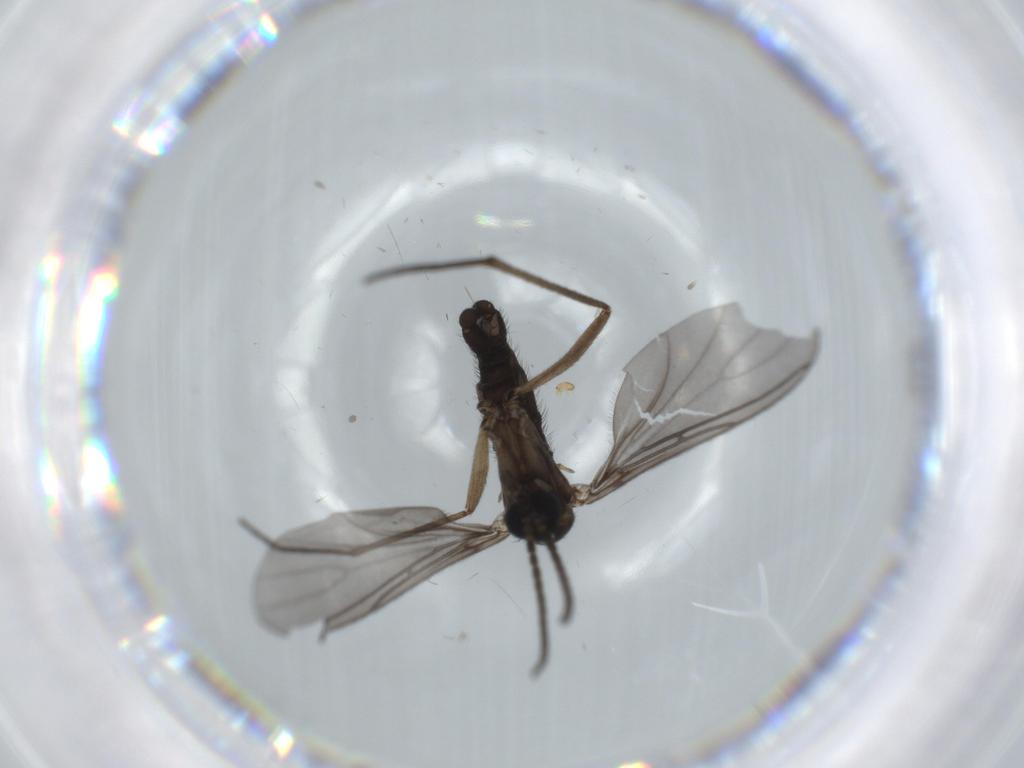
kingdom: Animalia
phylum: Arthropoda
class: Insecta
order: Diptera
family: Sciaridae
